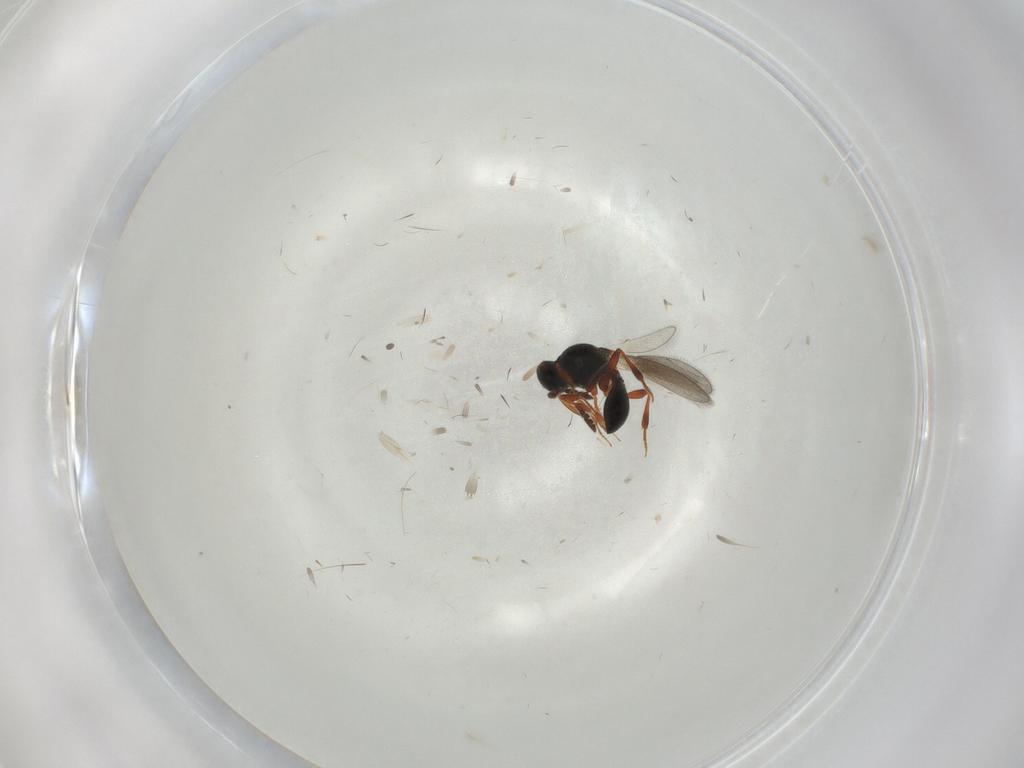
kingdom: Animalia
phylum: Arthropoda
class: Insecta
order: Hymenoptera
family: Platygastridae
